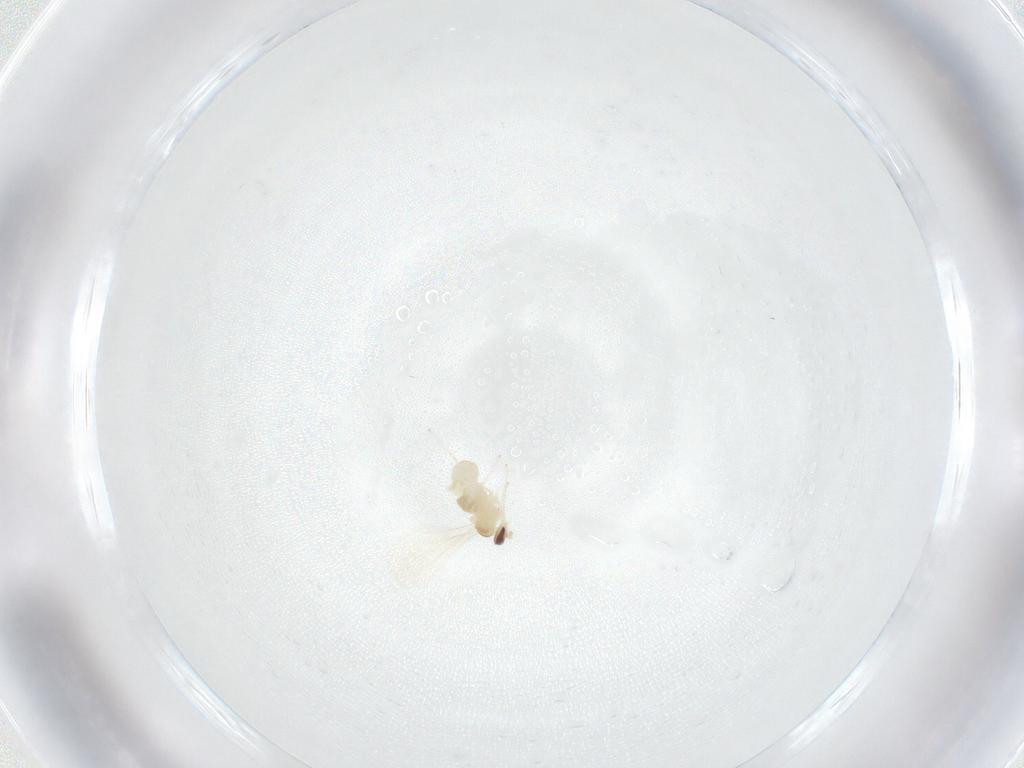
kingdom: Animalia
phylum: Arthropoda
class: Insecta
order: Diptera
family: Cecidomyiidae
